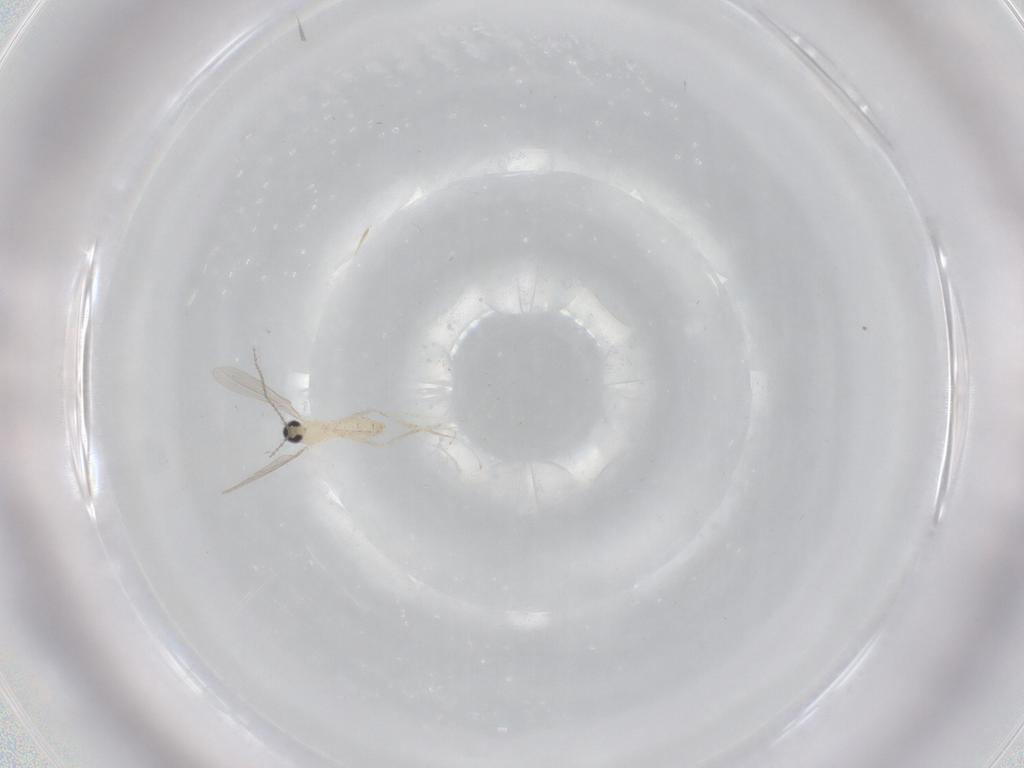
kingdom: Animalia
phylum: Arthropoda
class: Insecta
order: Diptera
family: Cecidomyiidae
